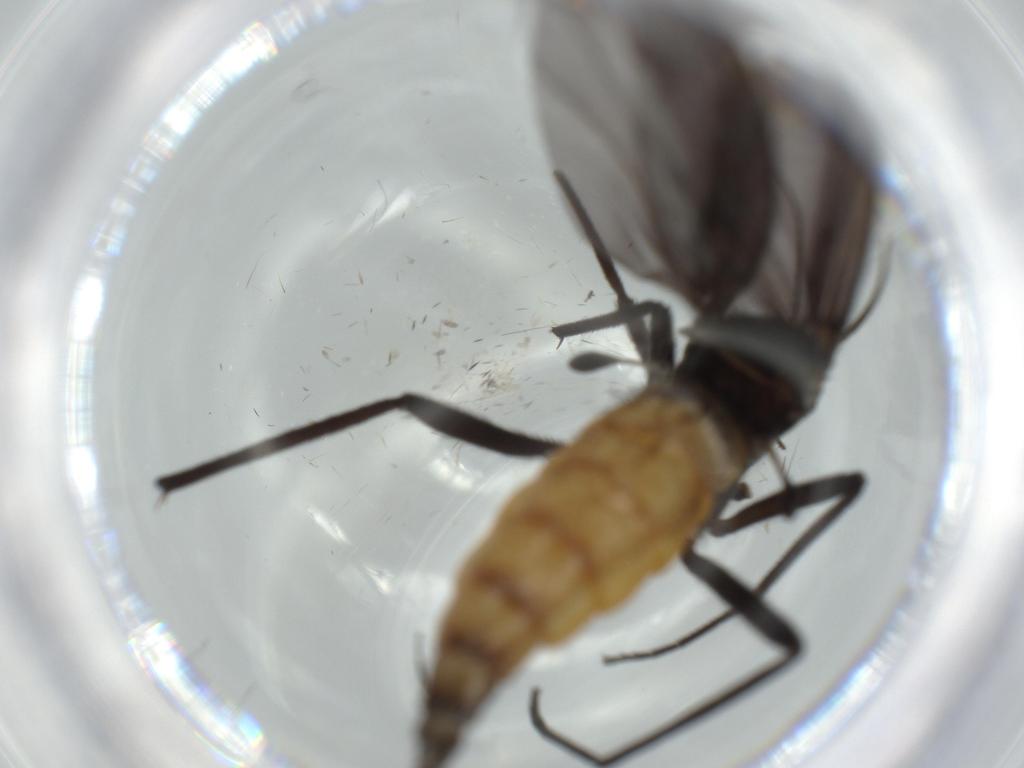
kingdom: Animalia
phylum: Arthropoda
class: Insecta
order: Diptera
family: Sciaridae
